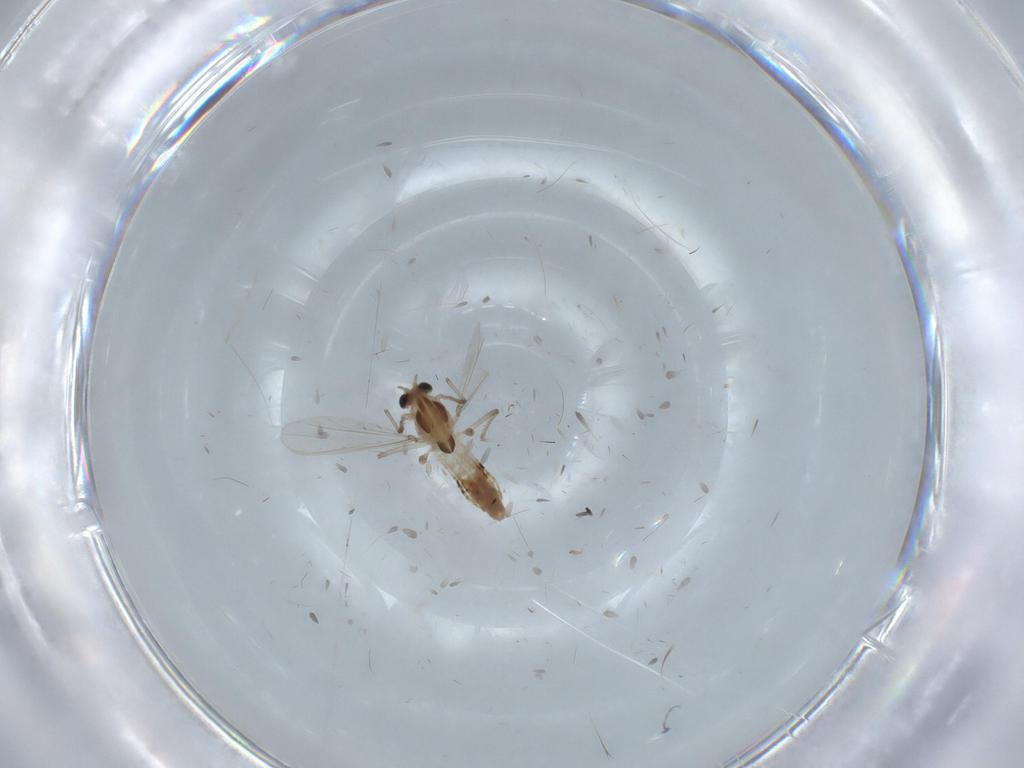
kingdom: Animalia
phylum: Arthropoda
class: Insecta
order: Diptera
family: Chironomidae
